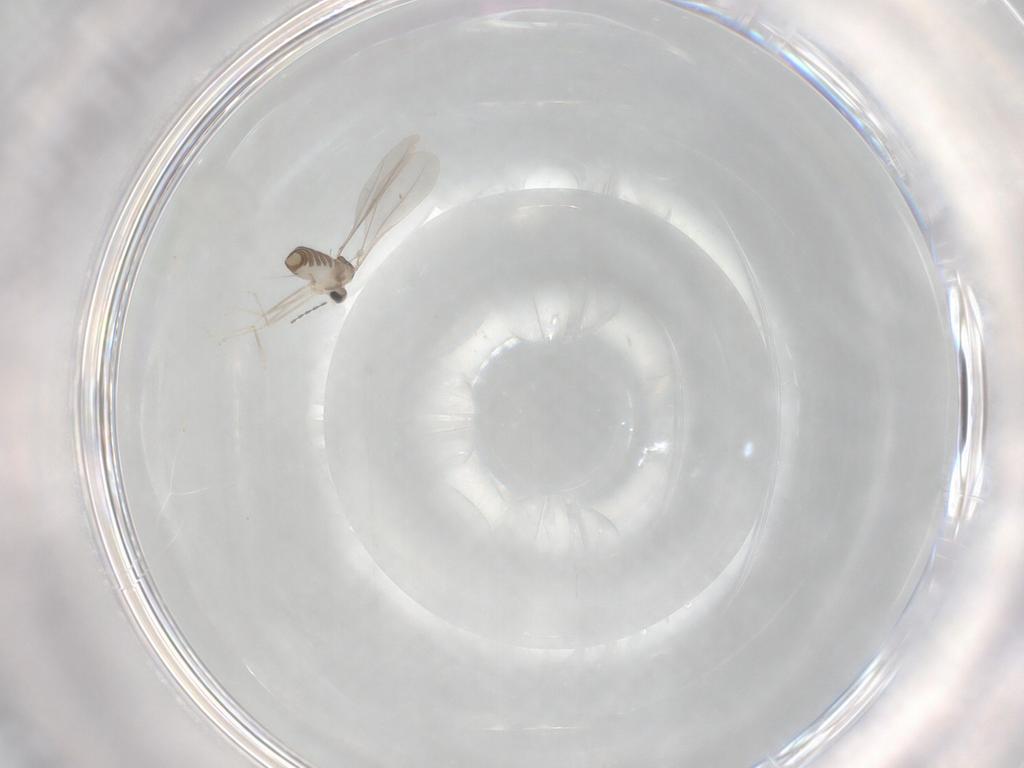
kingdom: Animalia
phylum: Arthropoda
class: Insecta
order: Diptera
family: Cecidomyiidae
